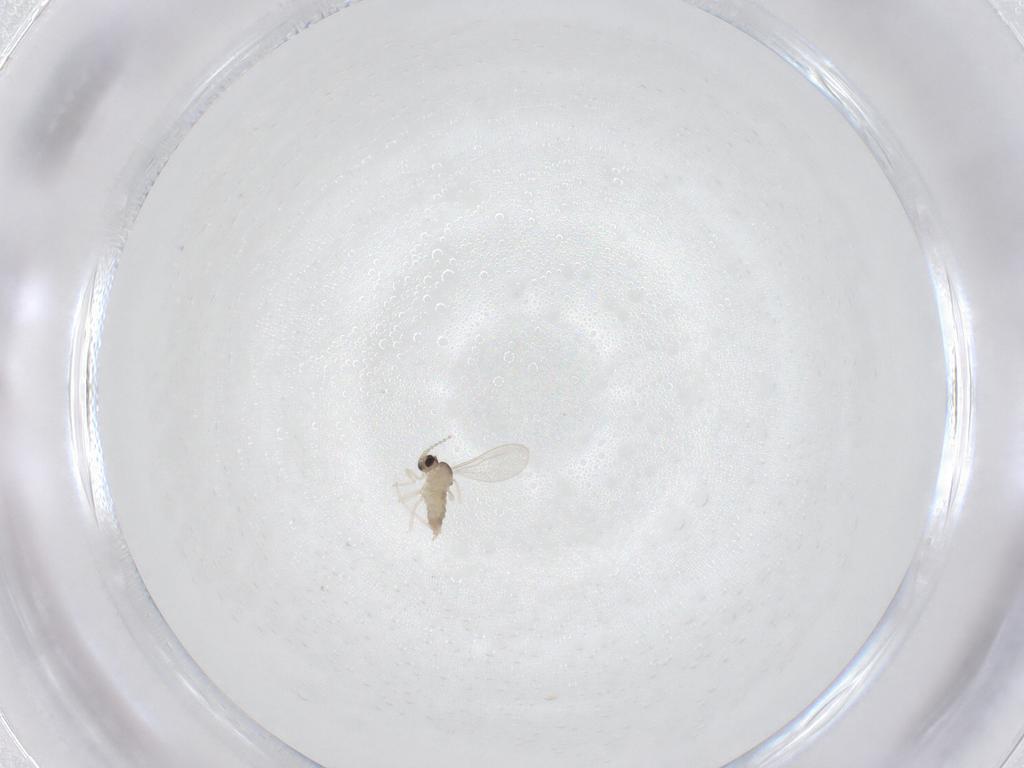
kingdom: Animalia
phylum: Arthropoda
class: Insecta
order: Diptera
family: Cecidomyiidae
